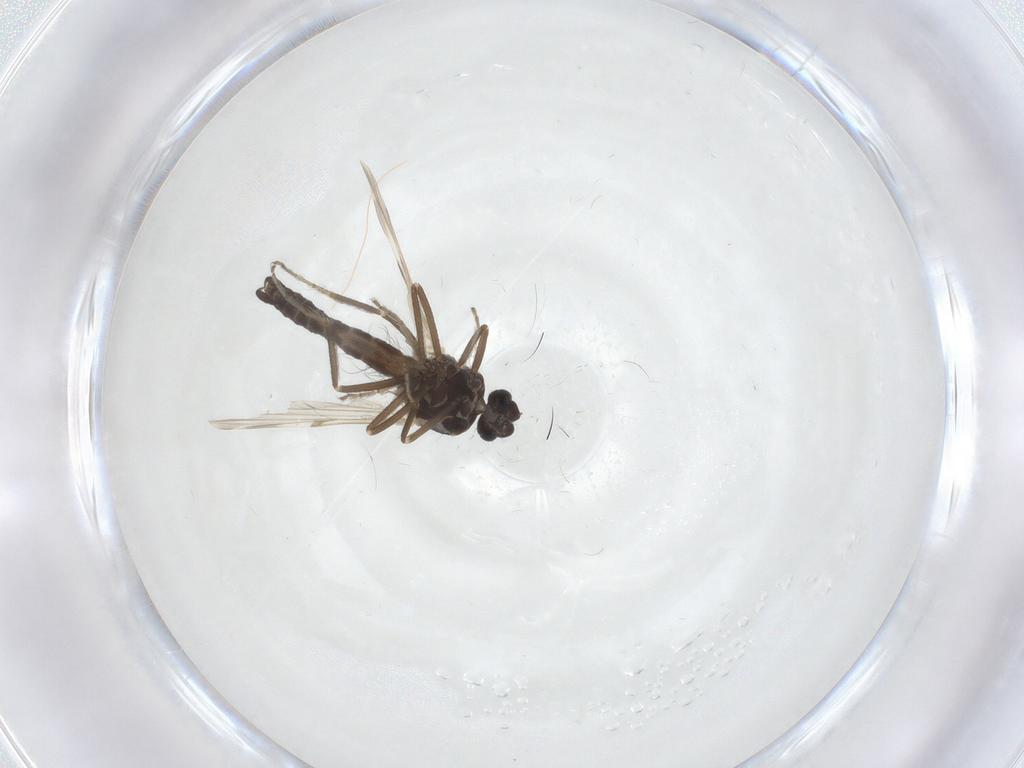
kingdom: Animalia
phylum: Arthropoda
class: Insecta
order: Diptera
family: Ceratopogonidae
